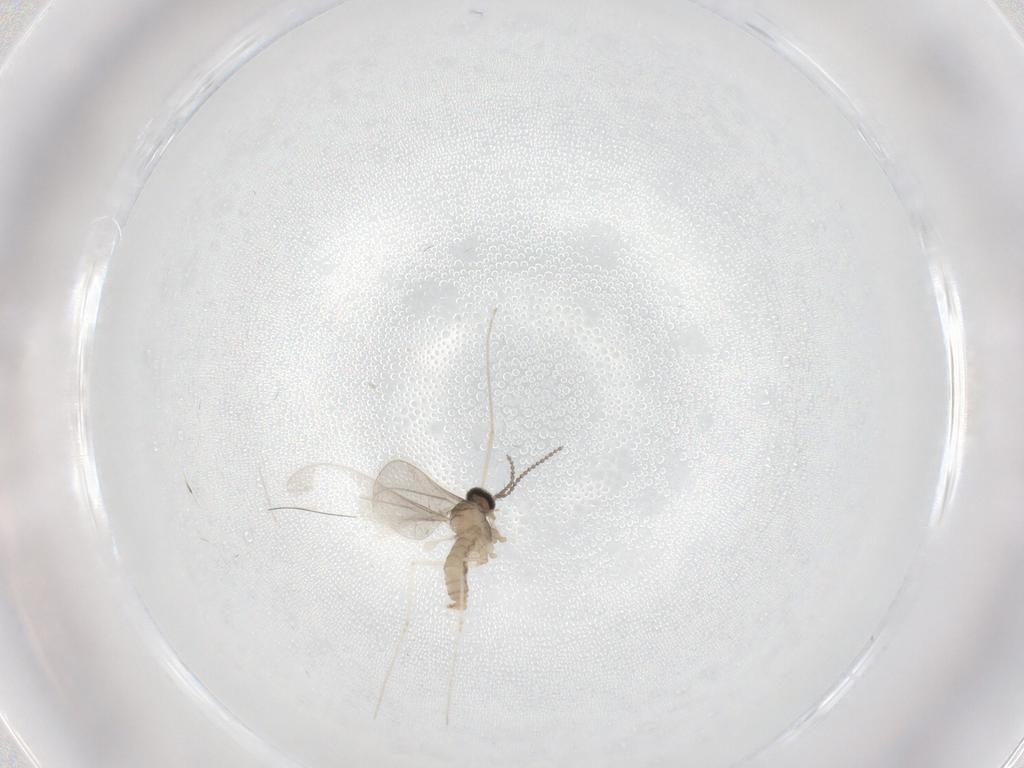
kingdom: Animalia
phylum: Arthropoda
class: Insecta
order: Diptera
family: Cecidomyiidae
